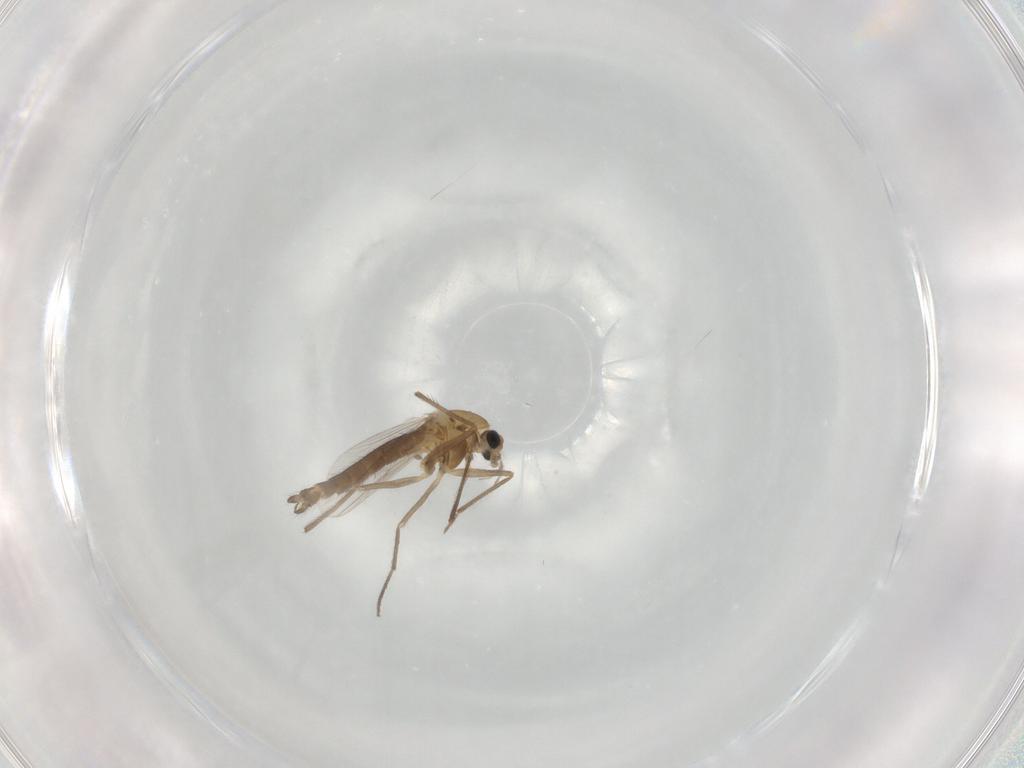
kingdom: Animalia
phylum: Arthropoda
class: Insecta
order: Diptera
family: Chironomidae
